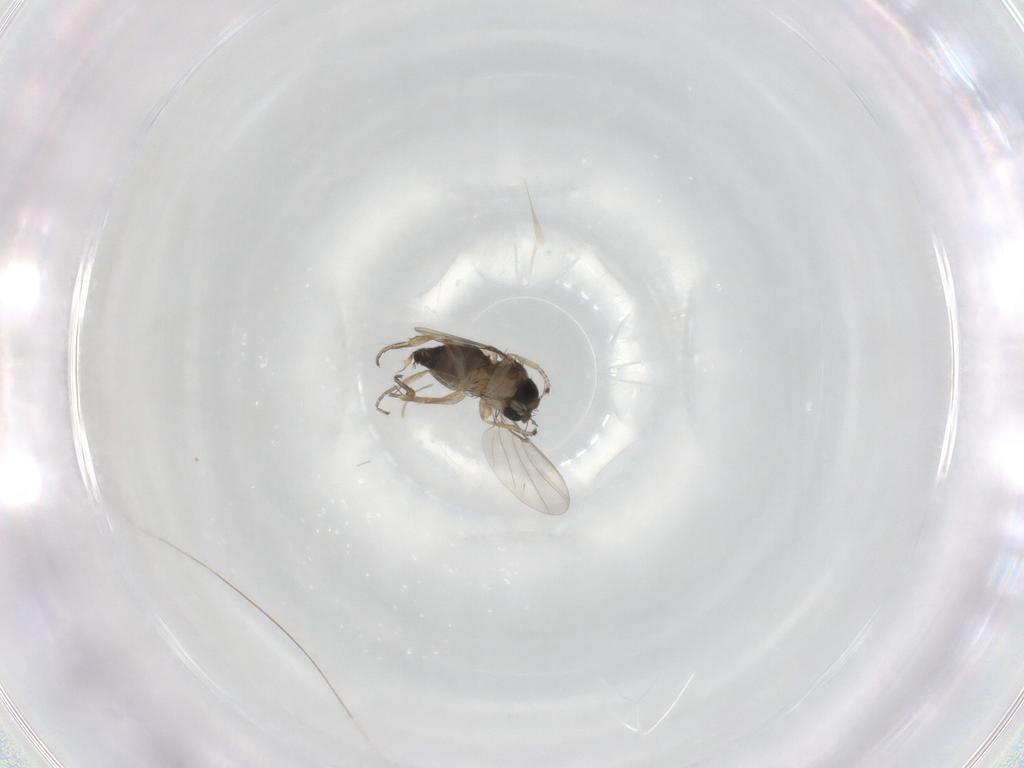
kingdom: Animalia
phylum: Arthropoda
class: Insecta
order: Diptera
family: Phoridae
